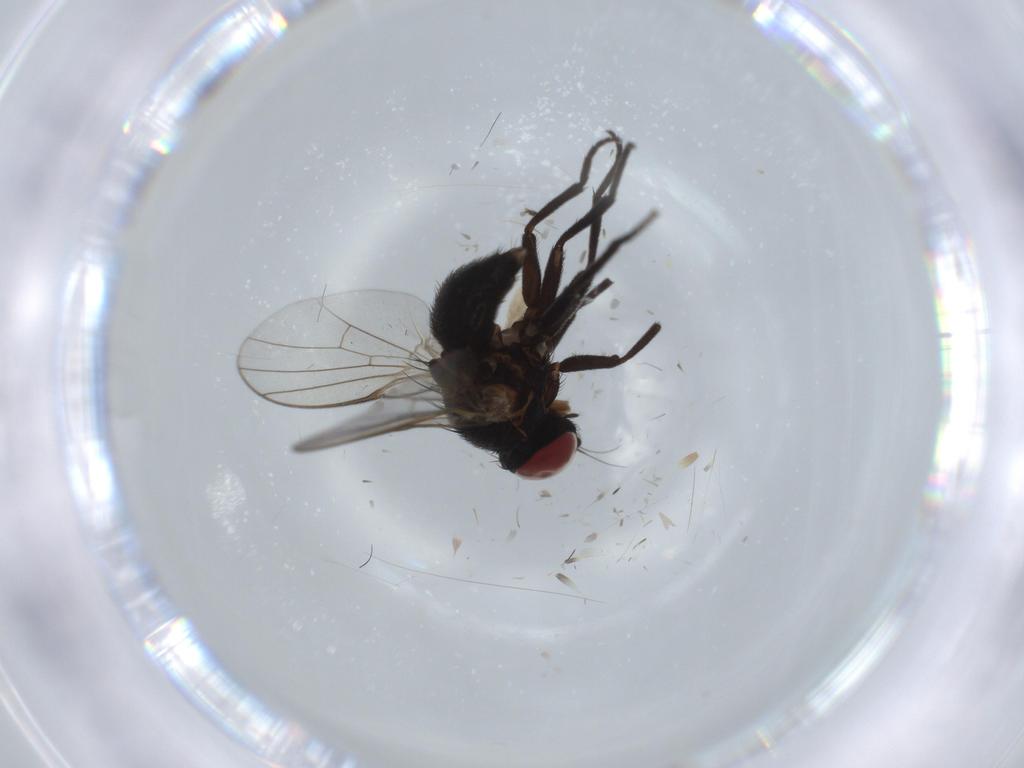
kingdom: Animalia
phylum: Arthropoda
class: Insecta
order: Diptera
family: Agromyzidae
